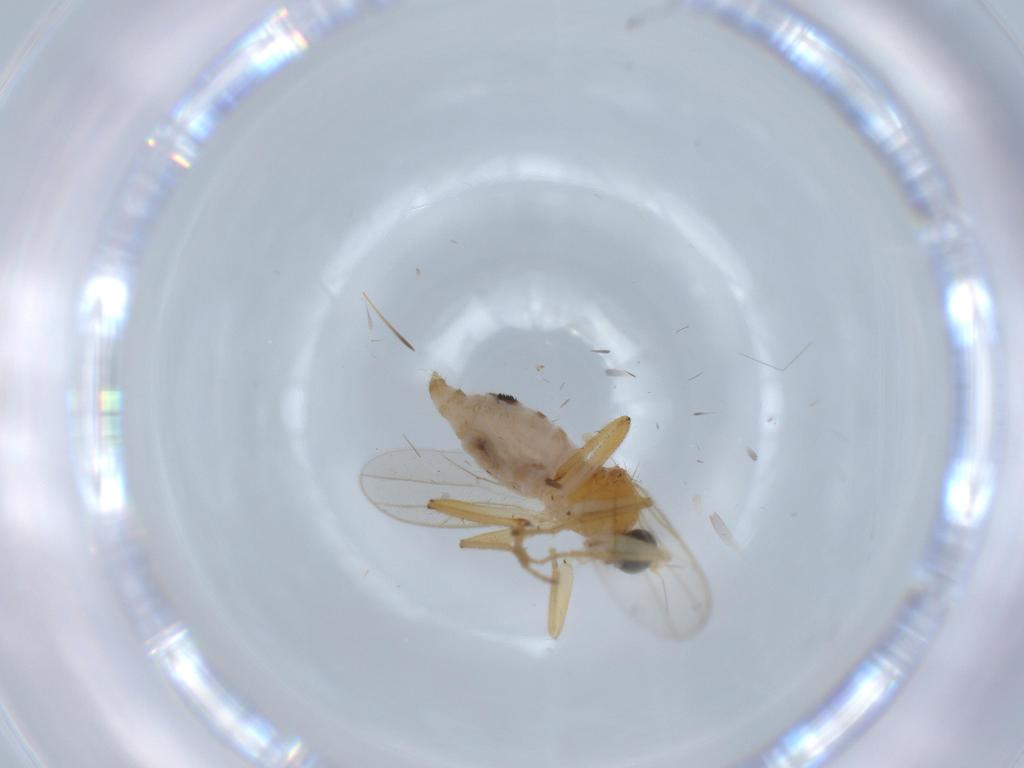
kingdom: Animalia
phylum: Arthropoda
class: Insecta
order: Diptera
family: Hybotidae
